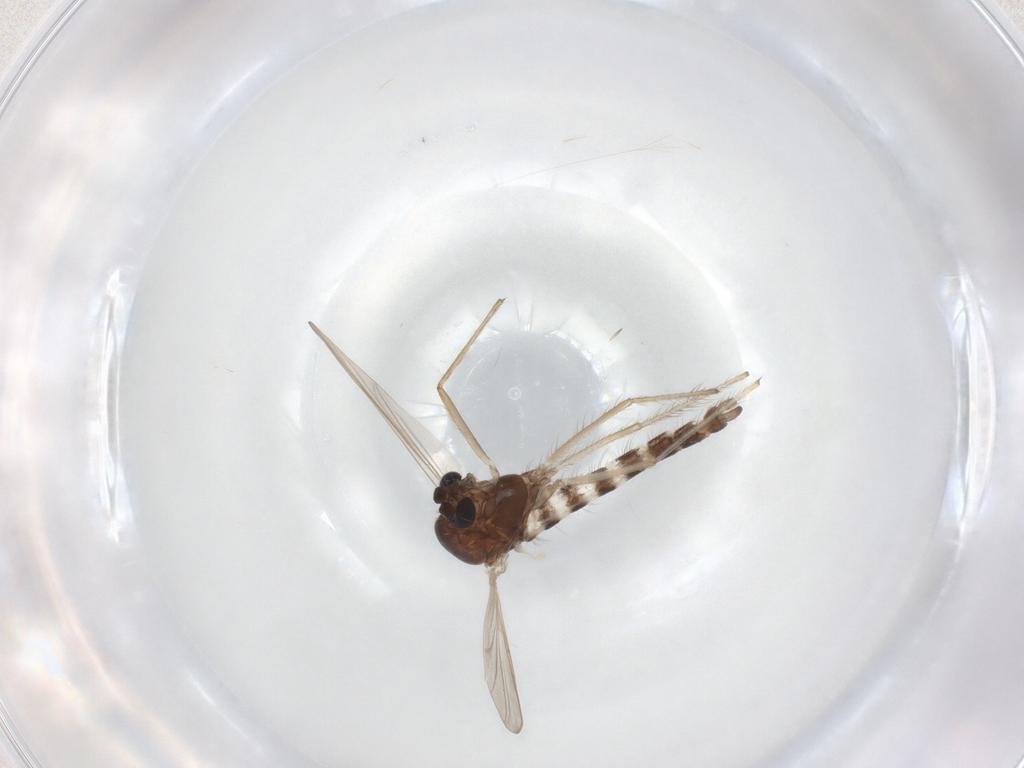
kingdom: Animalia
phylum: Arthropoda
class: Insecta
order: Diptera
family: Chironomidae
